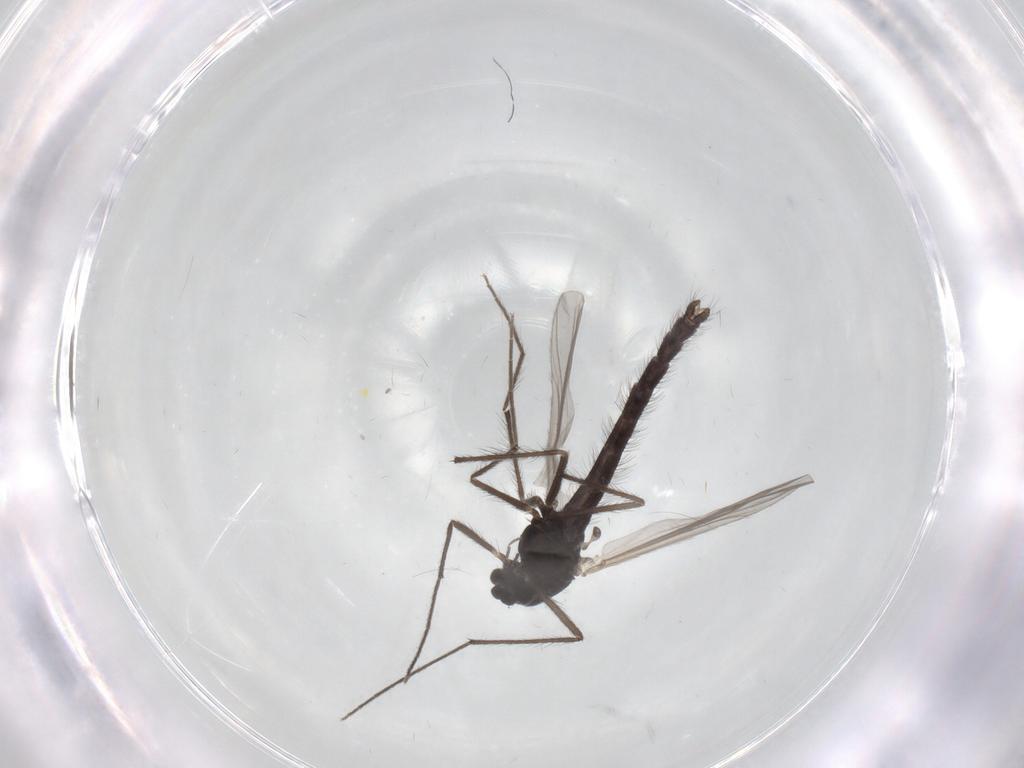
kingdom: Animalia
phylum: Arthropoda
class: Insecta
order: Diptera
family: Chironomidae
